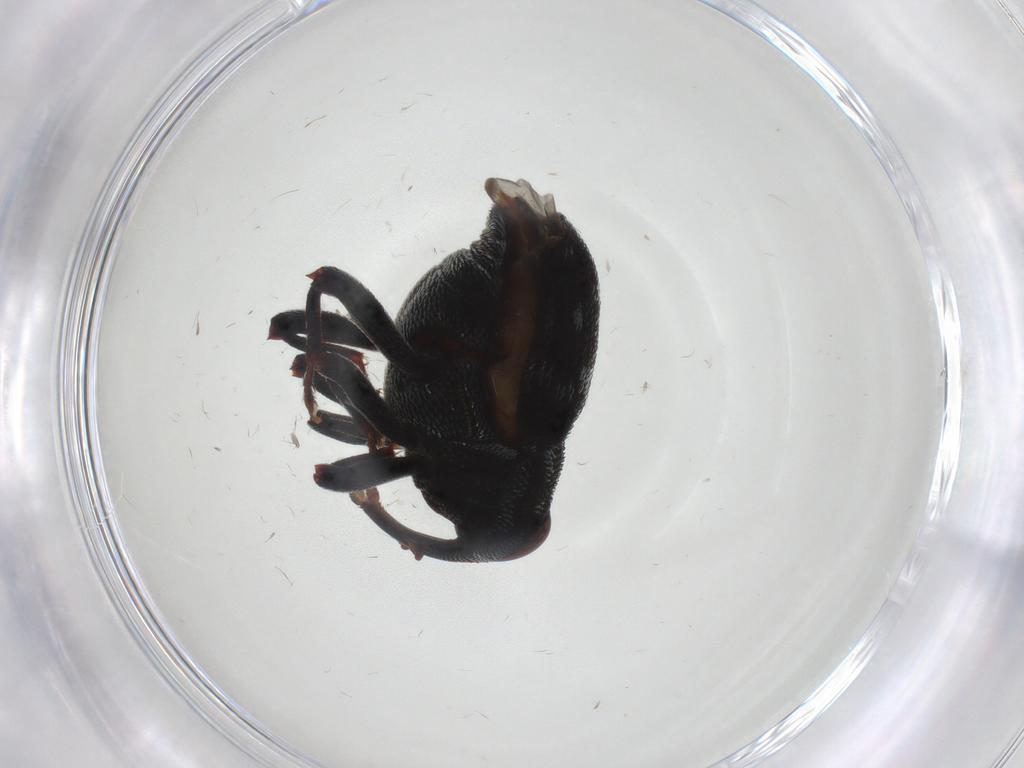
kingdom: Animalia
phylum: Arthropoda
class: Insecta
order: Coleoptera
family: Curculionidae
